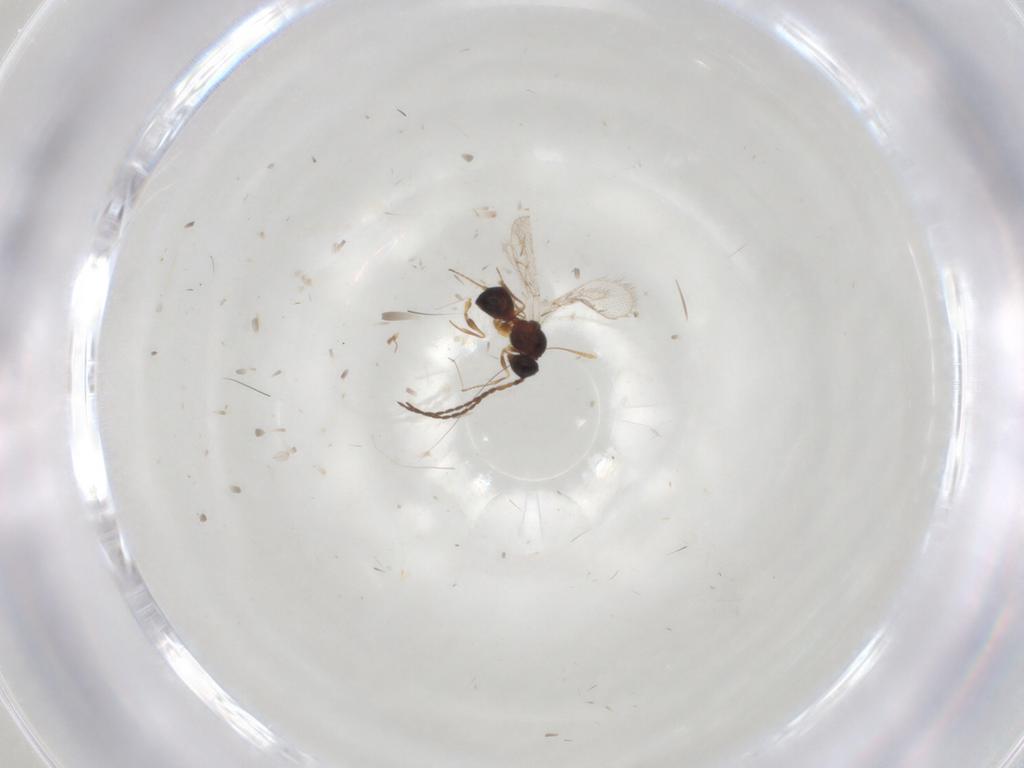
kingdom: Animalia
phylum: Arthropoda
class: Insecta
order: Hymenoptera
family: Figitidae
